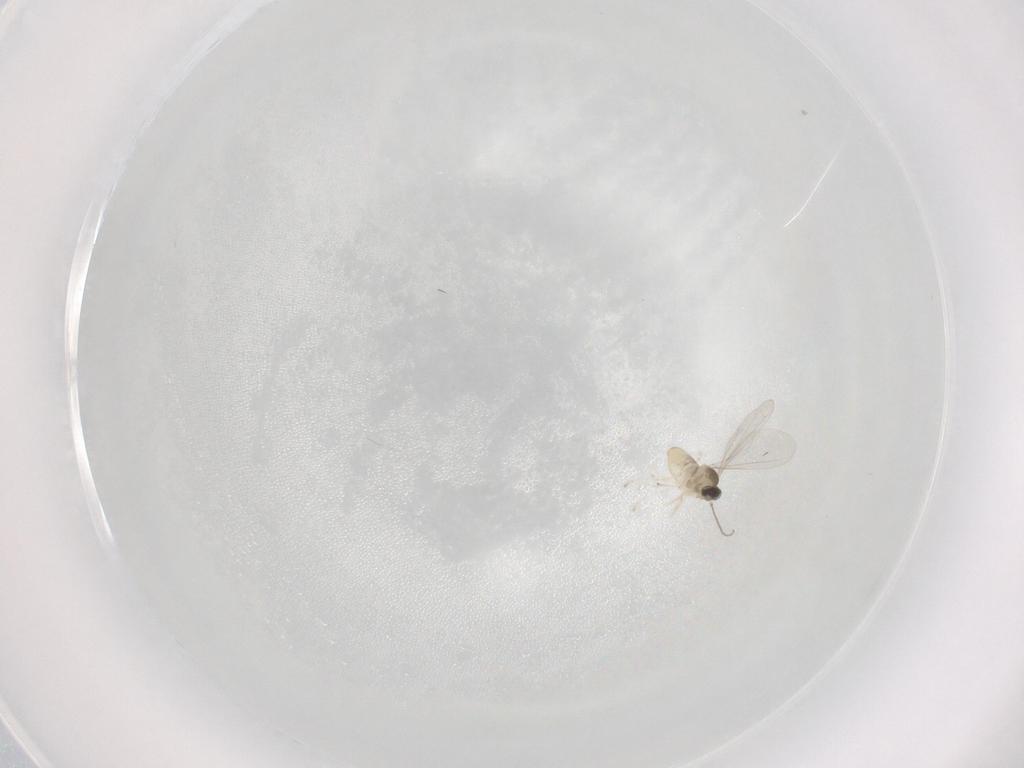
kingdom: Animalia
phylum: Arthropoda
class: Insecta
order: Diptera
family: Cecidomyiidae
